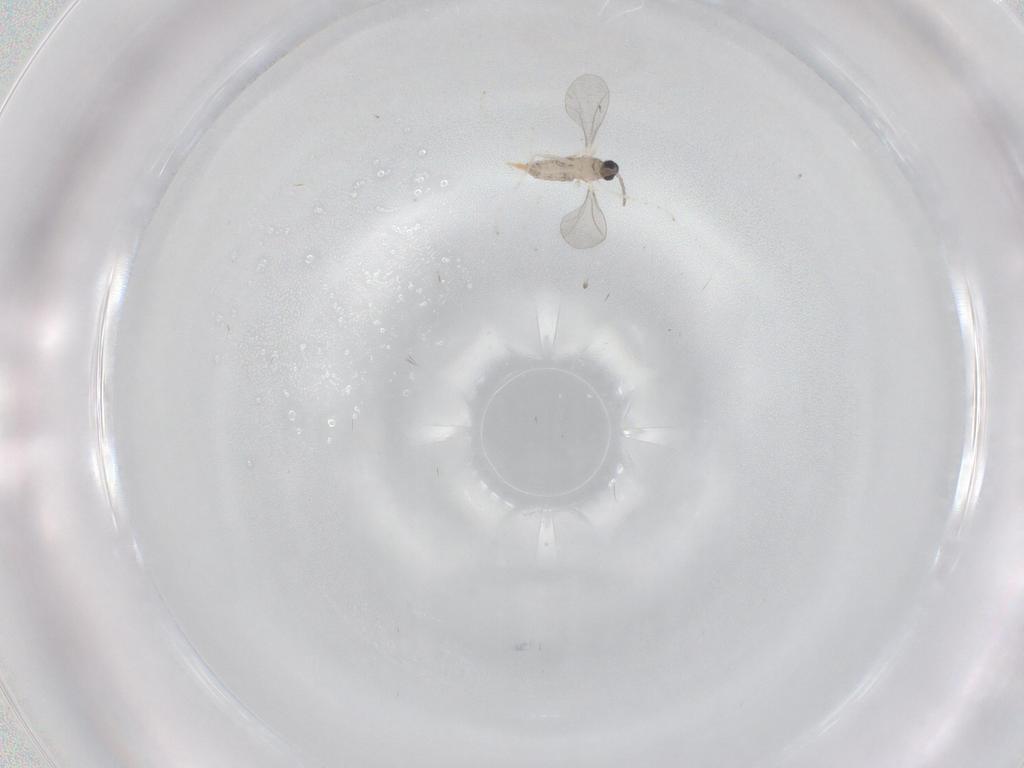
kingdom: Animalia
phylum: Arthropoda
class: Insecta
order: Diptera
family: Cecidomyiidae
